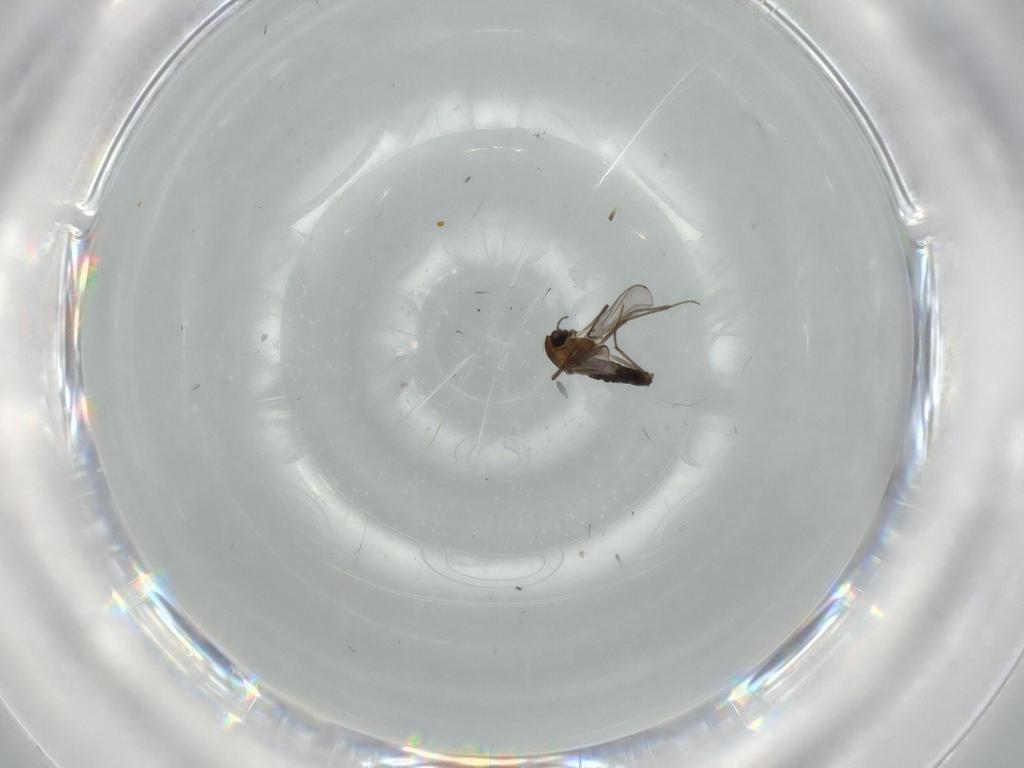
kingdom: Animalia
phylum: Arthropoda
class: Insecta
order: Diptera
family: Chironomidae
